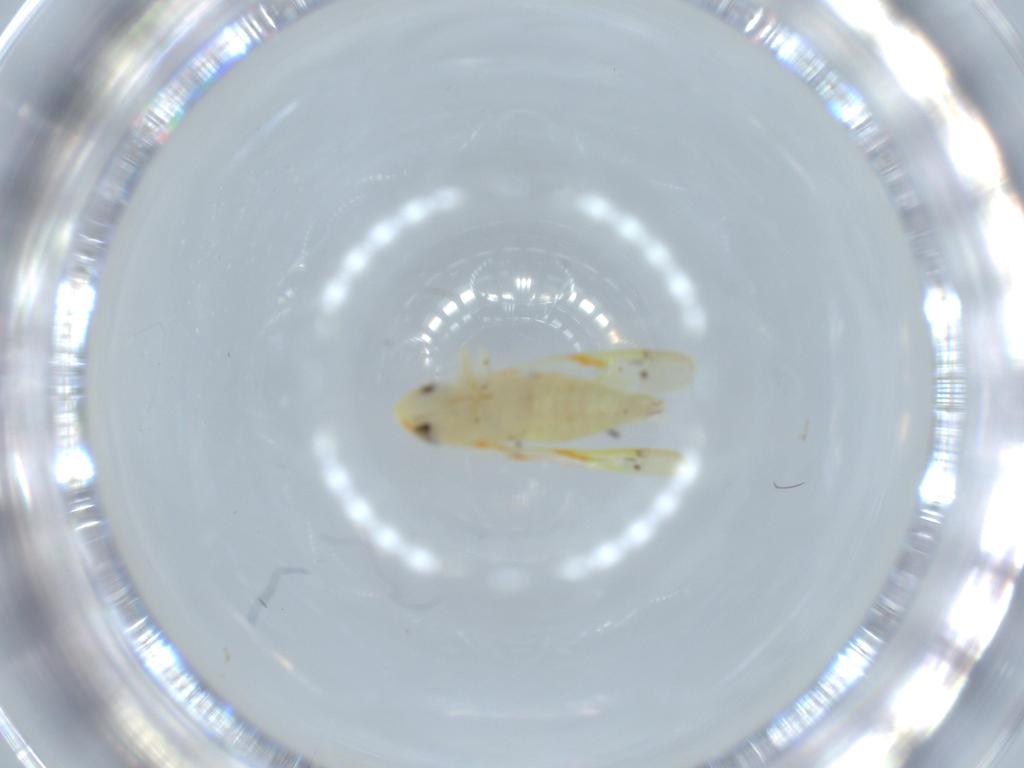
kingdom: Animalia
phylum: Arthropoda
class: Insecta
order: Hemiptera
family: Cicadellidae
